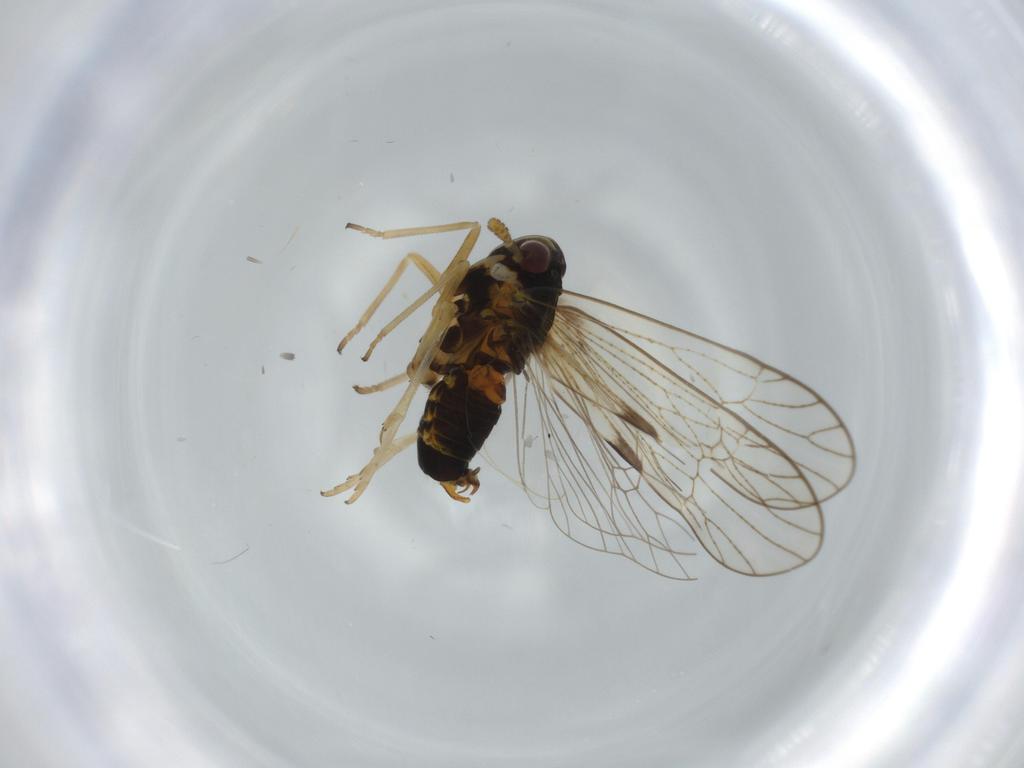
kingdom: Animalia
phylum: Arthropoda
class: Insecta
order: Hemiptera
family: Cicadellidae
